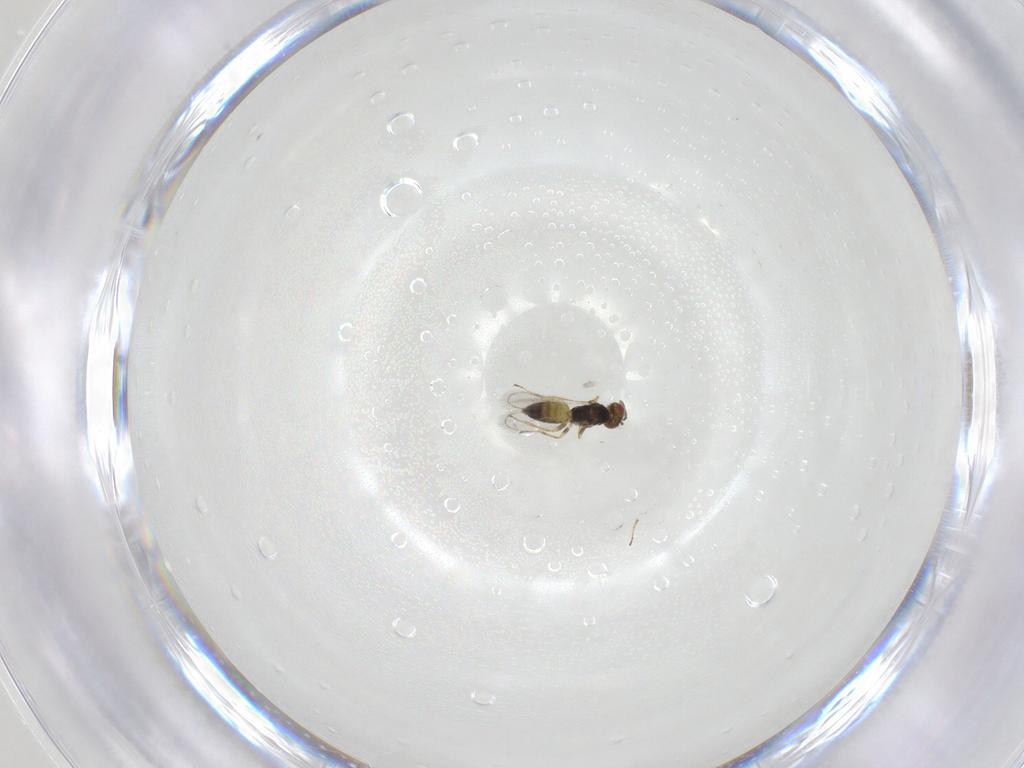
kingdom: Animalia
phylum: Arthropoda
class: Insecta
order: Hymenoptera
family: Eulophidae
